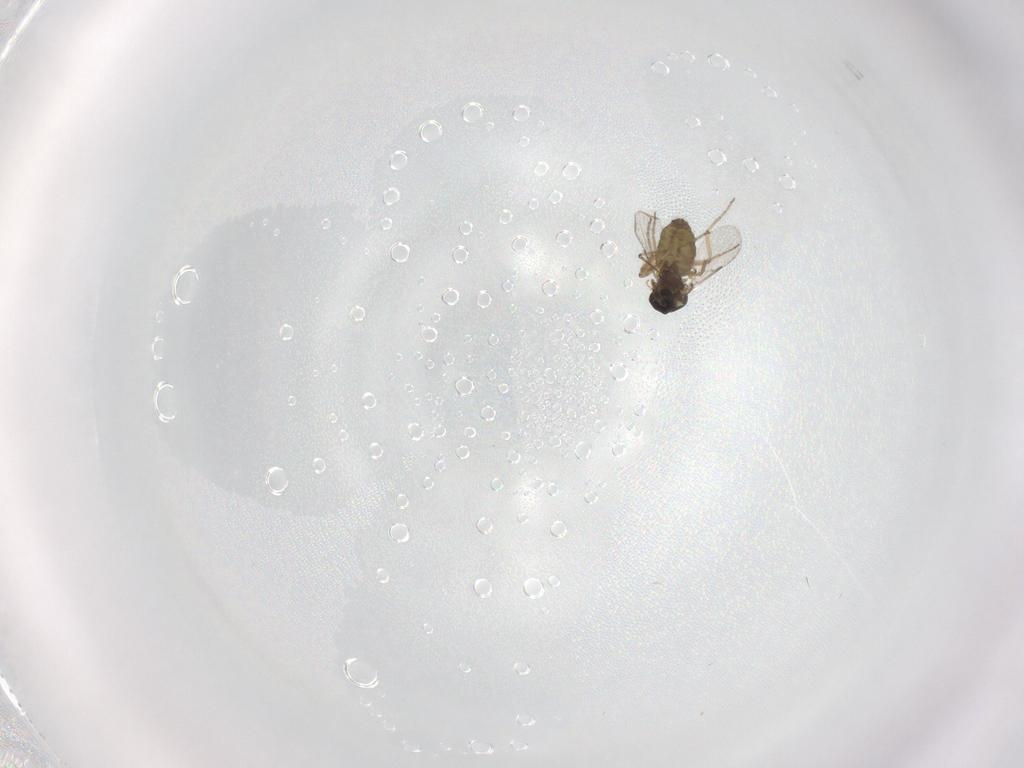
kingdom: Animalia
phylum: Arthropoda
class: Insecta
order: Diptera
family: Ceratopogonidae
